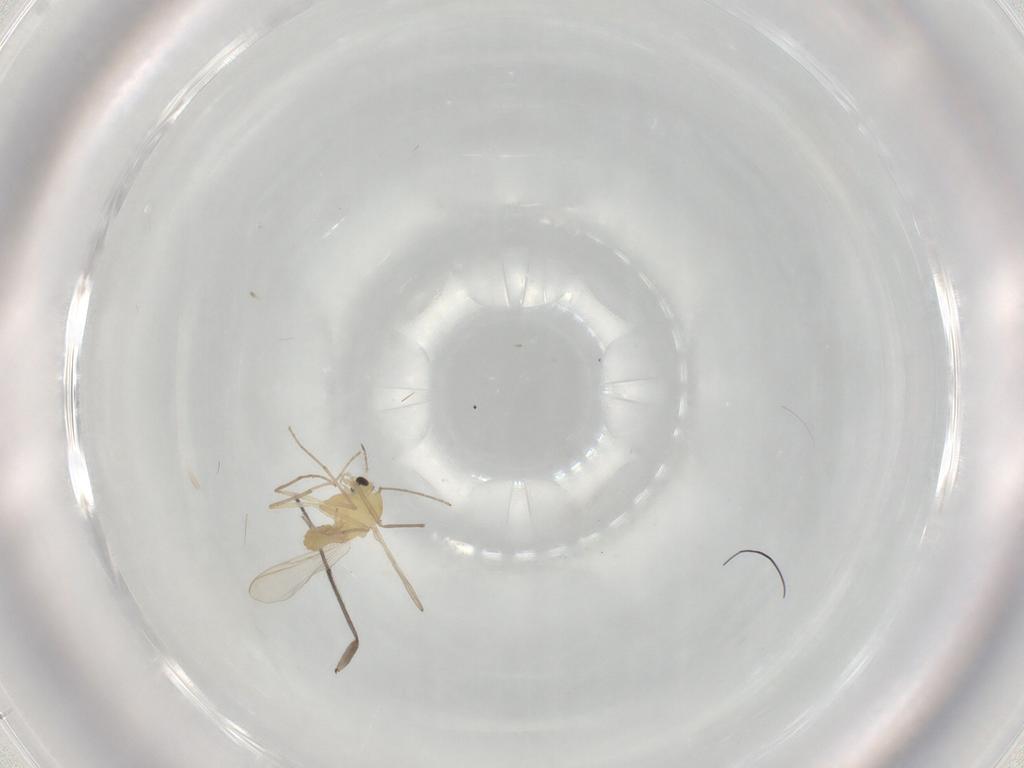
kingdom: Animalia
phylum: Arthropoda
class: Insecta
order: Diptera
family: Chironomidae
